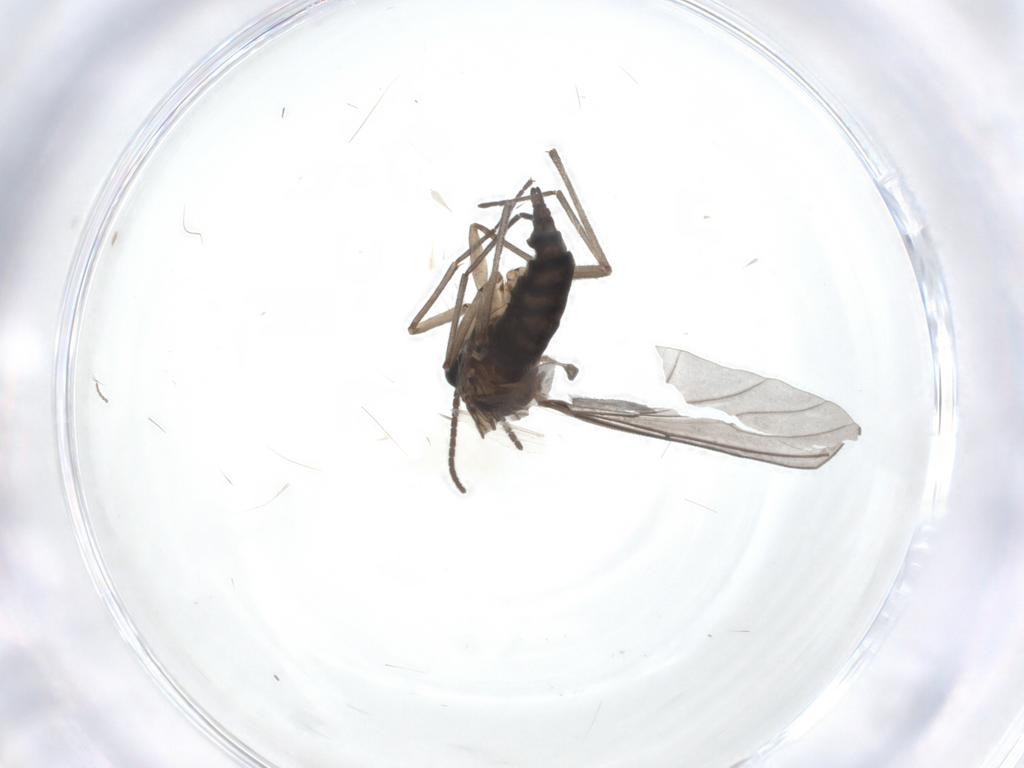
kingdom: Animalia
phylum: Arthropoda
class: Insecta
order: Diptera
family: Sciaridae
